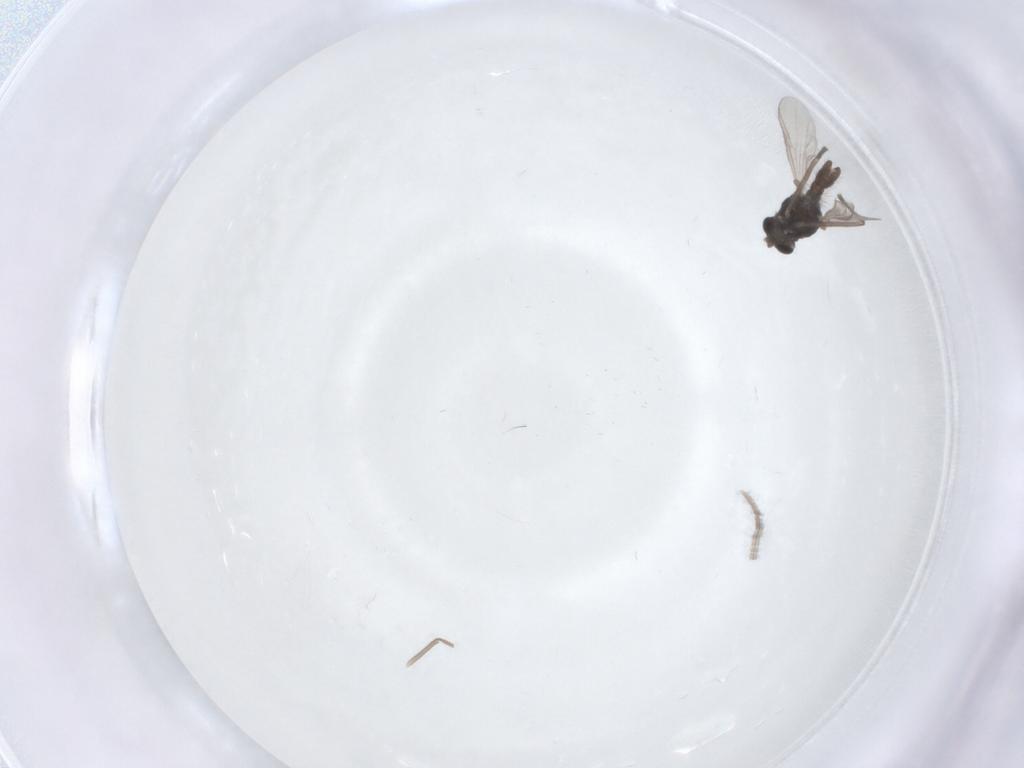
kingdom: Animalia
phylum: Arthropoda
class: Insecta
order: Diptera
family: Chironomidae
